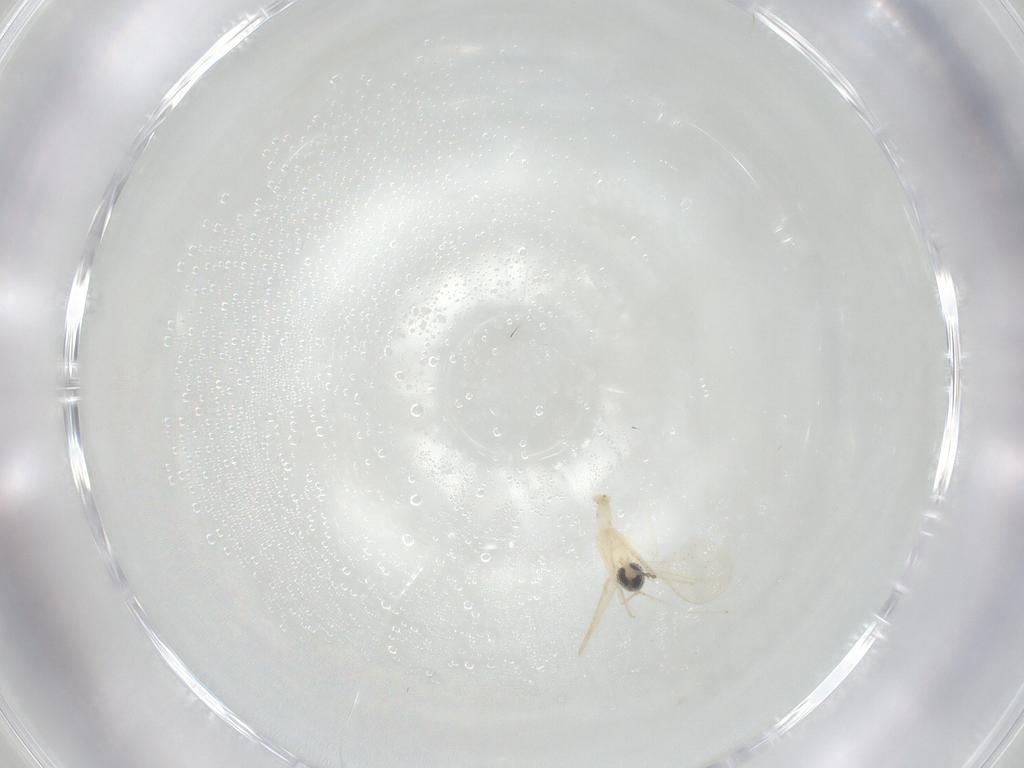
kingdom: Animalia
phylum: Arthropoda
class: Insecta
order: Diptera
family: Cecidomyiidae
